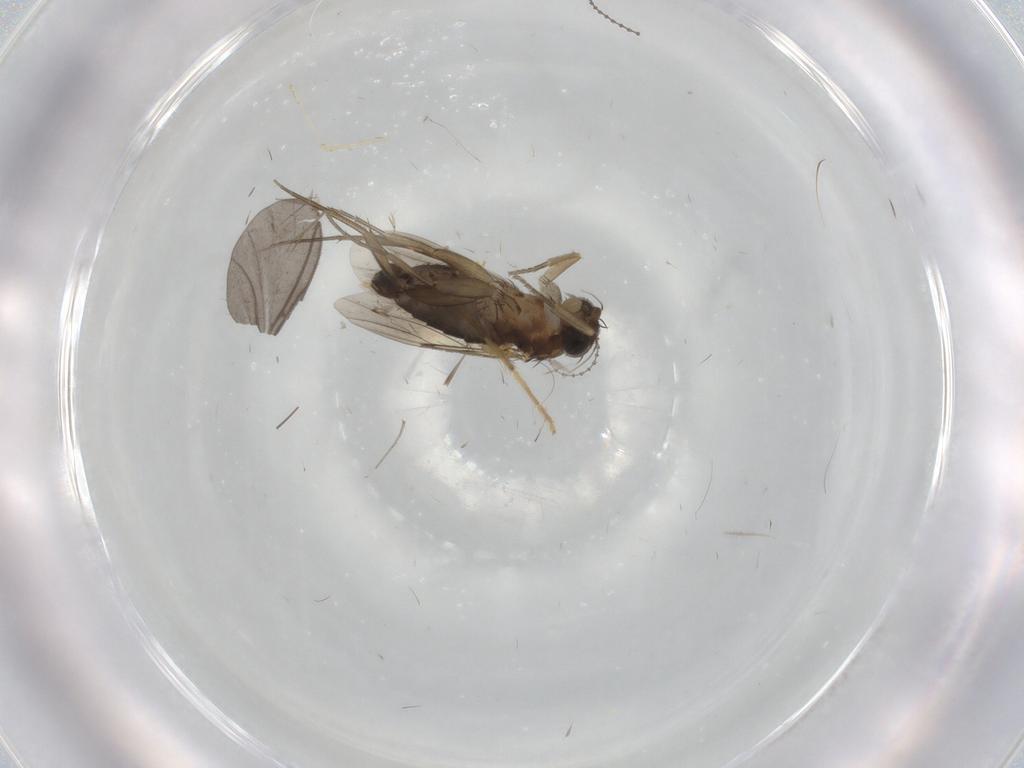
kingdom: Animalia
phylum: Arthropoda
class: Insecta
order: Diptera
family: Phoridae
